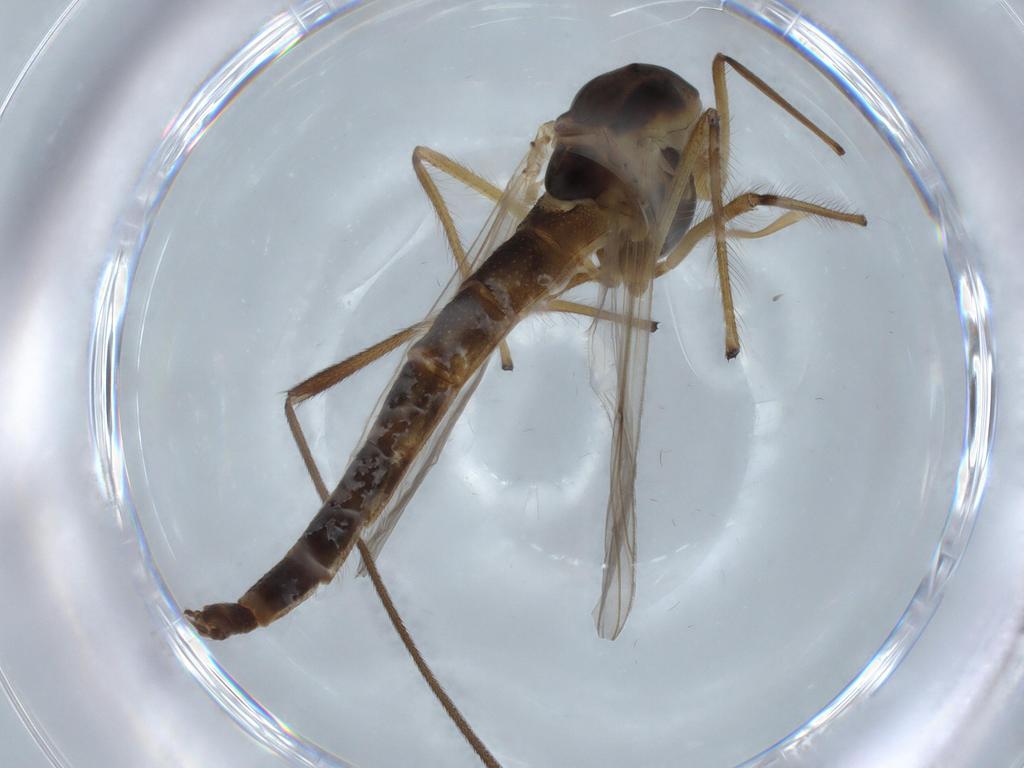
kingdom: Animalia
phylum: Arthropoda
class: Insecta
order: Diptera
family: Chironomidae
